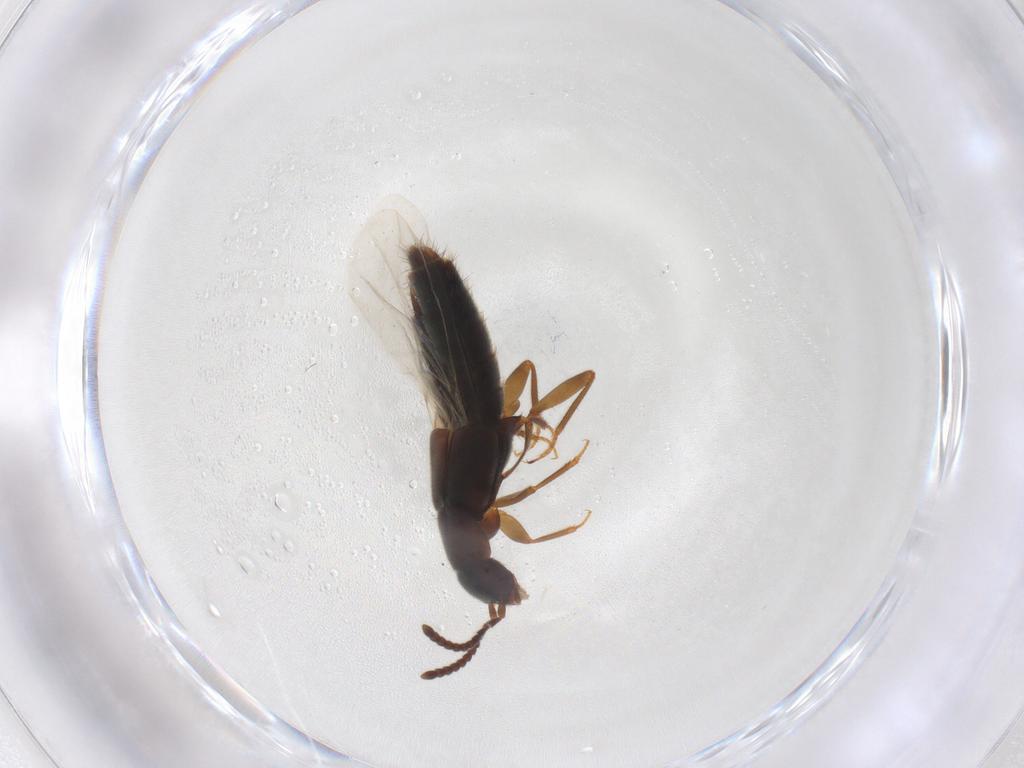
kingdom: Animalia
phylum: Arthropoda
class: Insecta
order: Coleoptera
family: Staphylinidae
